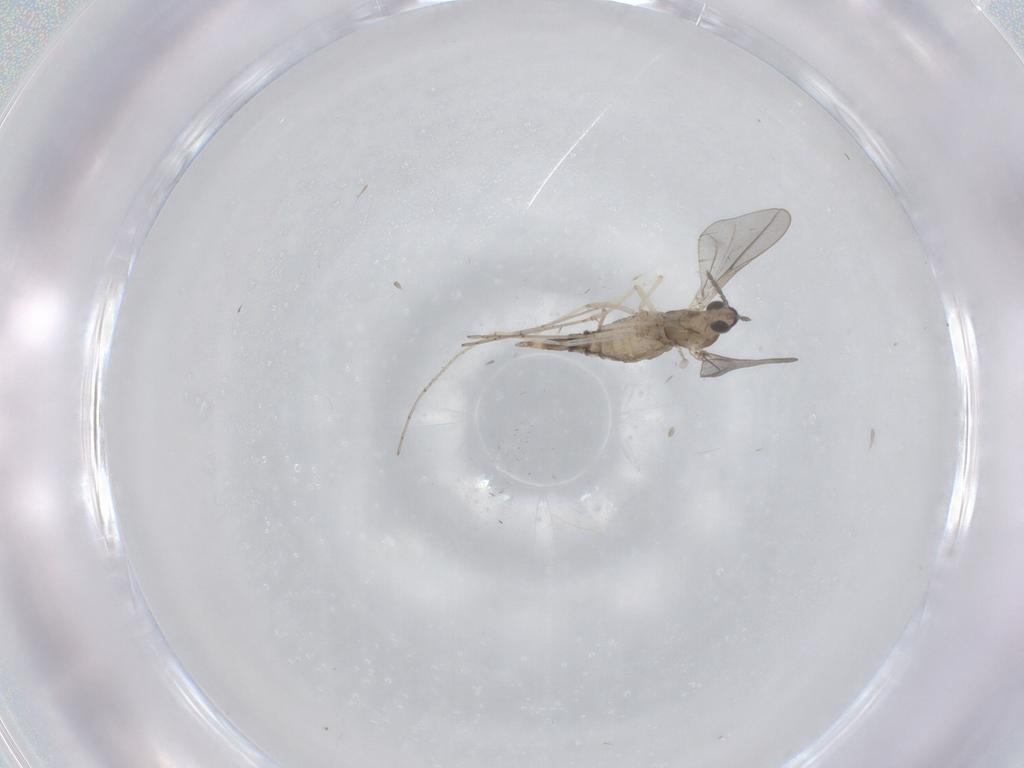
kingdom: Animalia
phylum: Arthropoda
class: Insecta
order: Diptera
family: Cecidomyiidae
